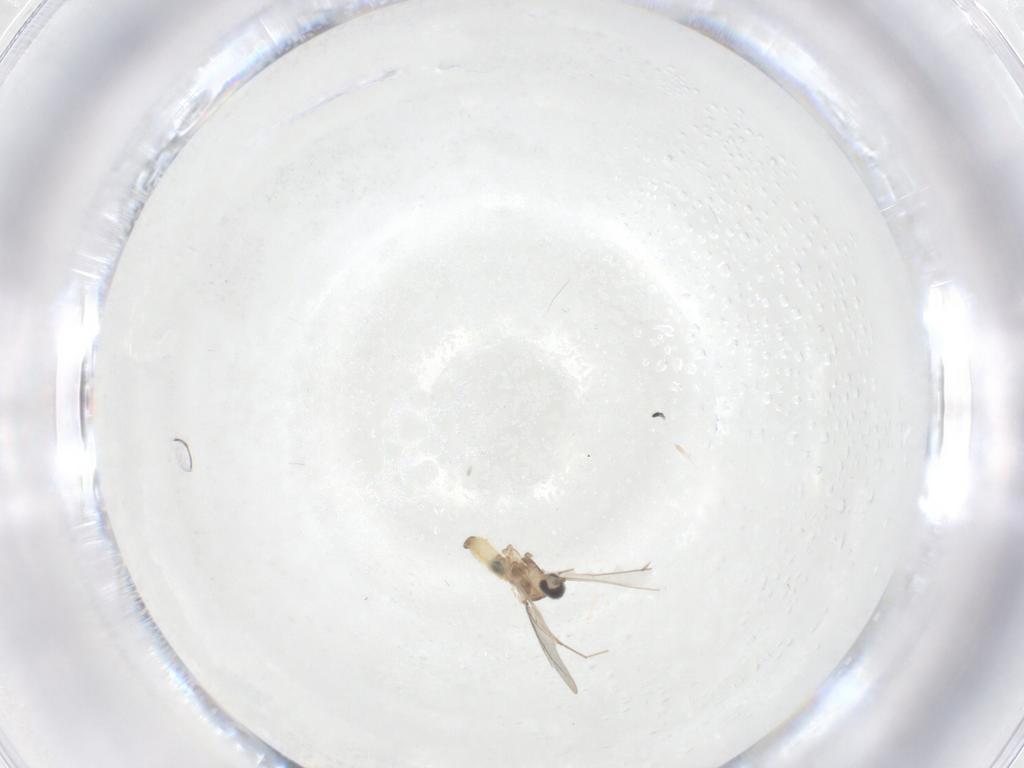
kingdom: Animalia
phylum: Arthropoda
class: Insecta
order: Diptera
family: Cecidomyiidae
